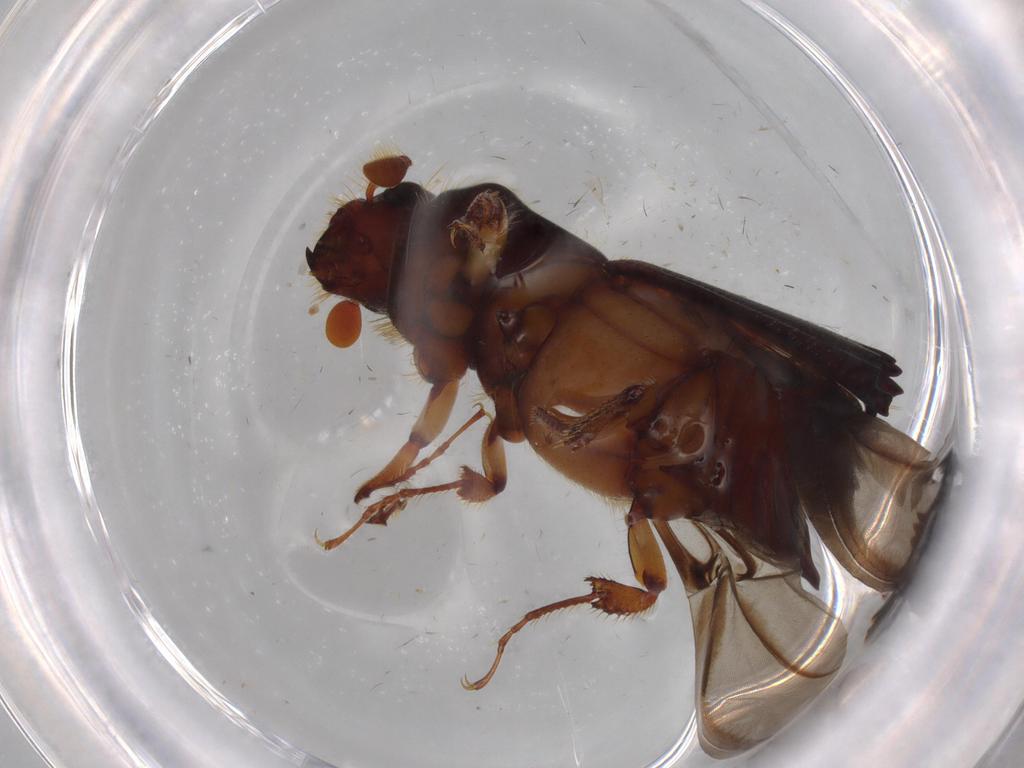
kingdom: Animalia
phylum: Arthropoda
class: Insecta
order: Coleoptera
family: Curculionidae
